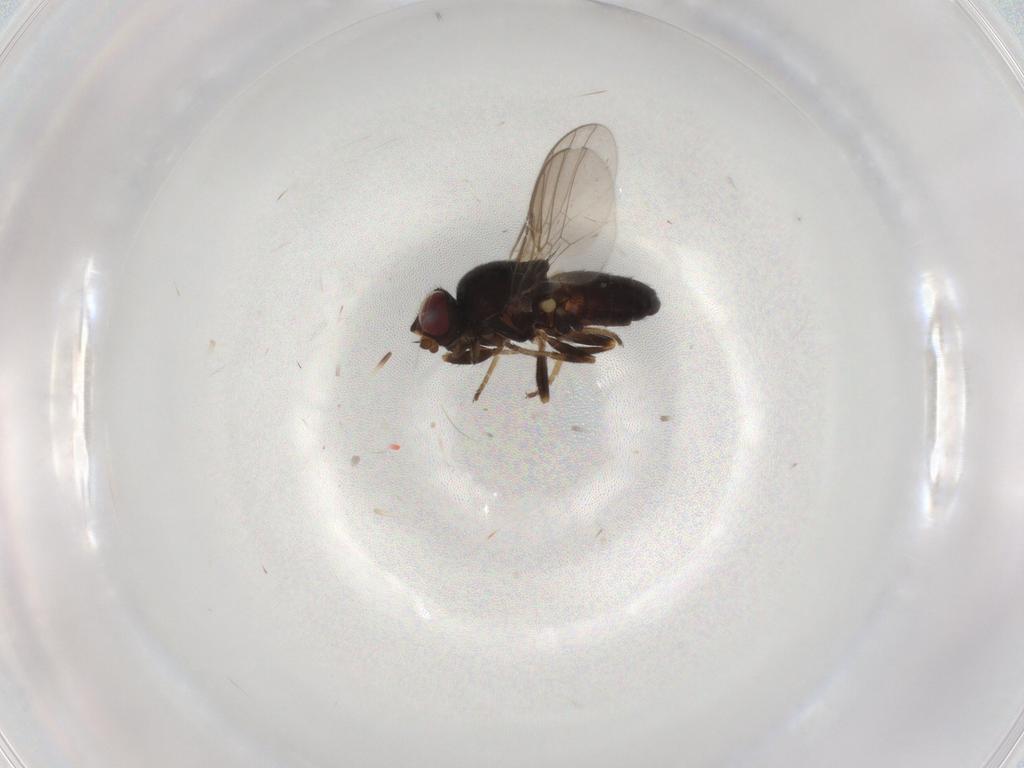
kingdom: Animalia
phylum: Arthropoda
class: Insecta
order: Diptera
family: Chloropidae
